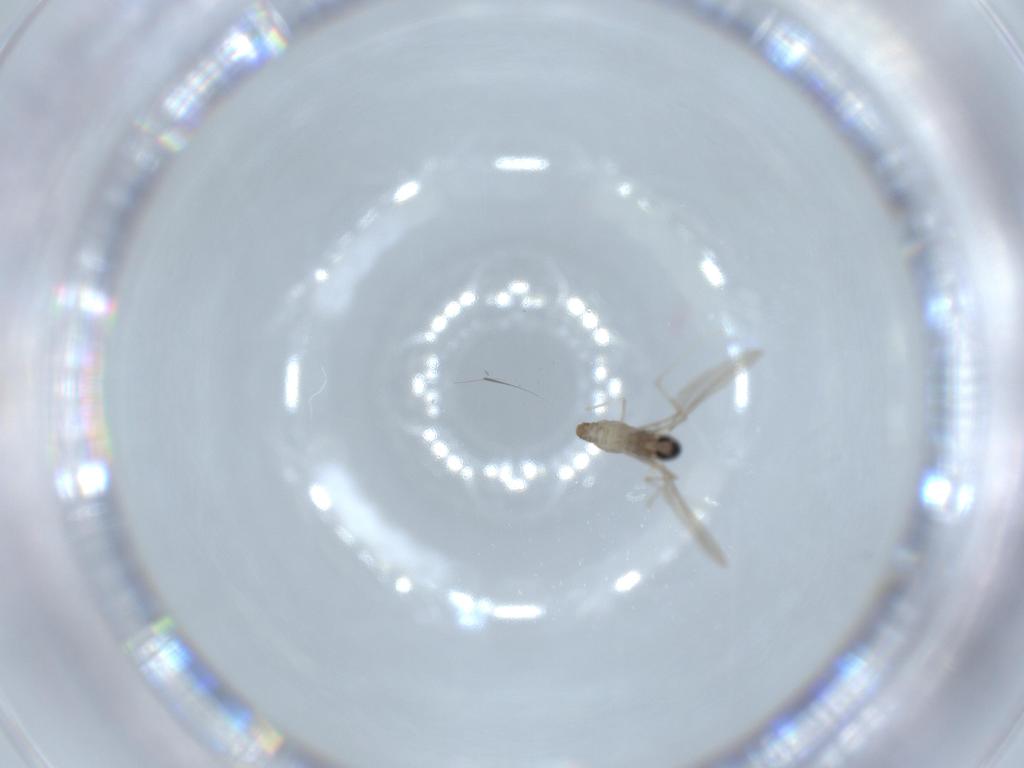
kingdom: Animalia
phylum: Arthropoda
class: Insecta
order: Diptera
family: Cecidomyiidae
